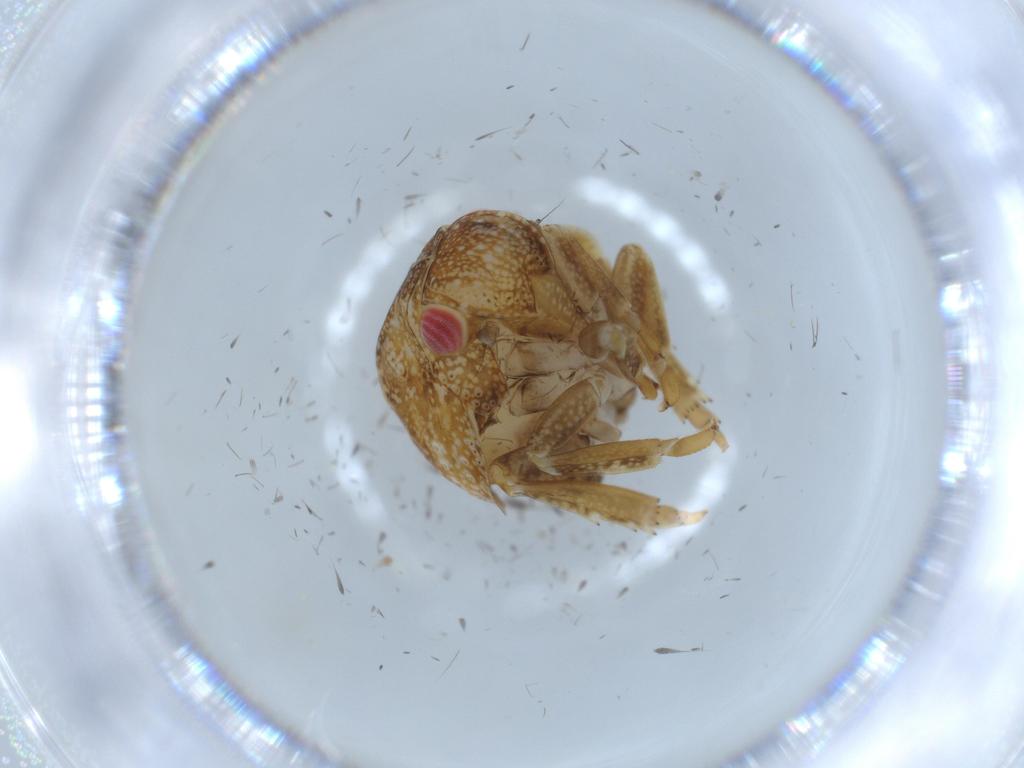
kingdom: Animalia
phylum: Arthropoda
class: Insecta
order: Hemiptera
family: Acanaloniidae
